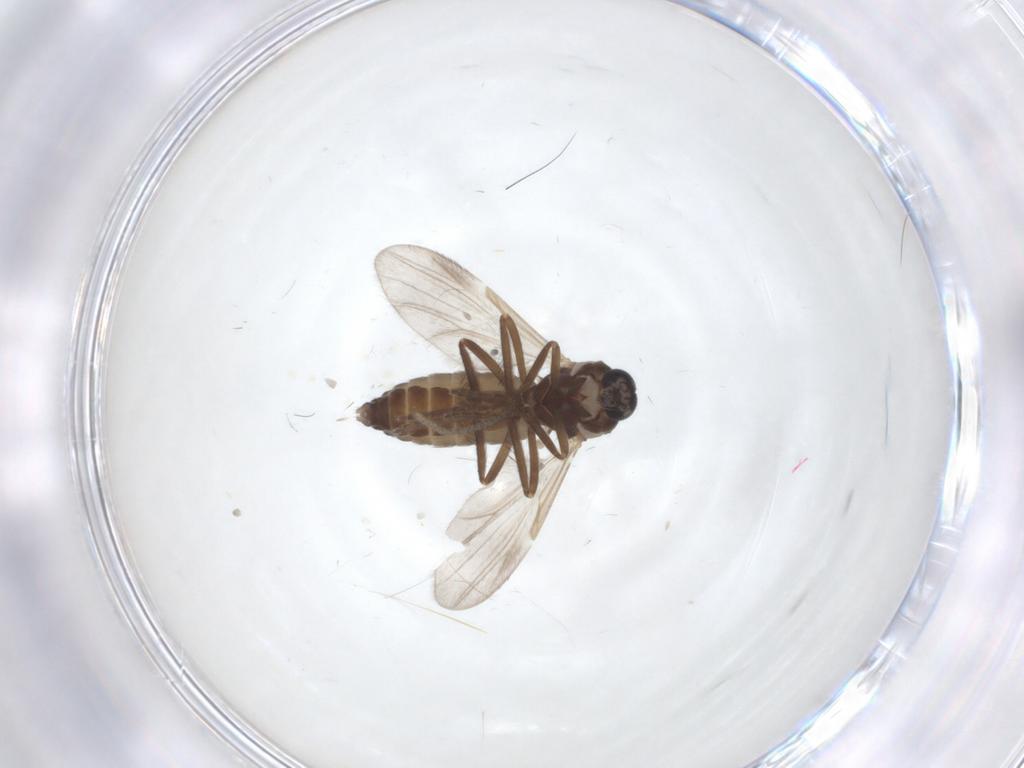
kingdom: Animalia
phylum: Arthropoda
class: Insecta
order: Diptera
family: Ceratopogonidae
